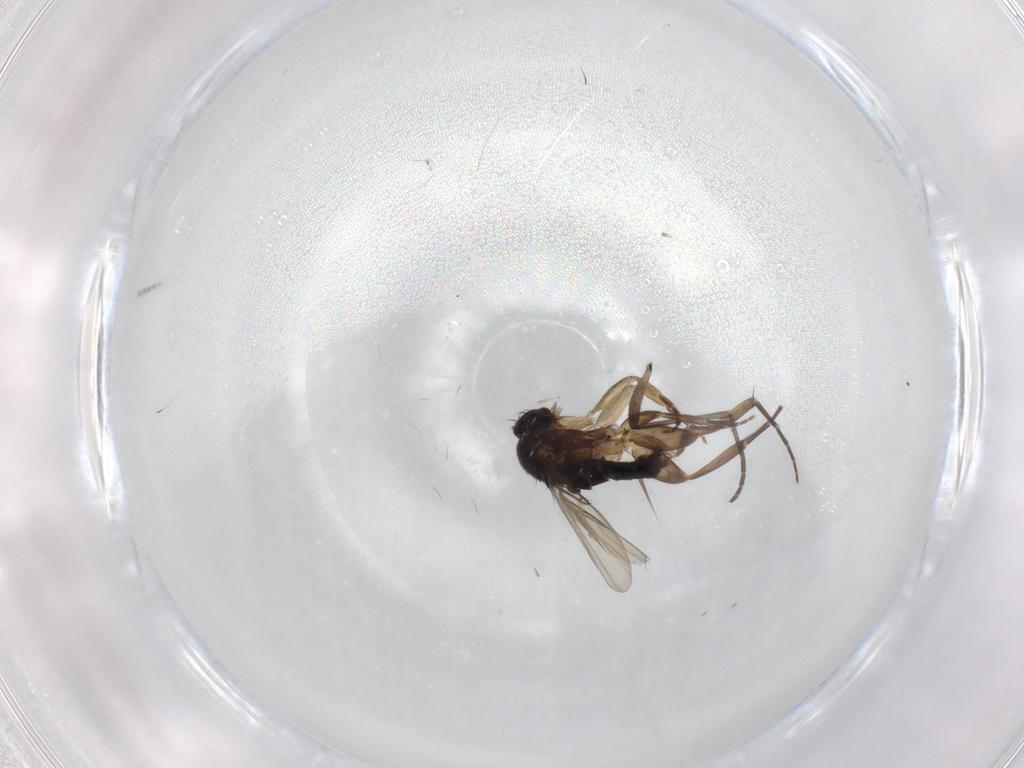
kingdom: Animalia
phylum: Arthropoda
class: Insecta
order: Diptera
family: Phoridae
